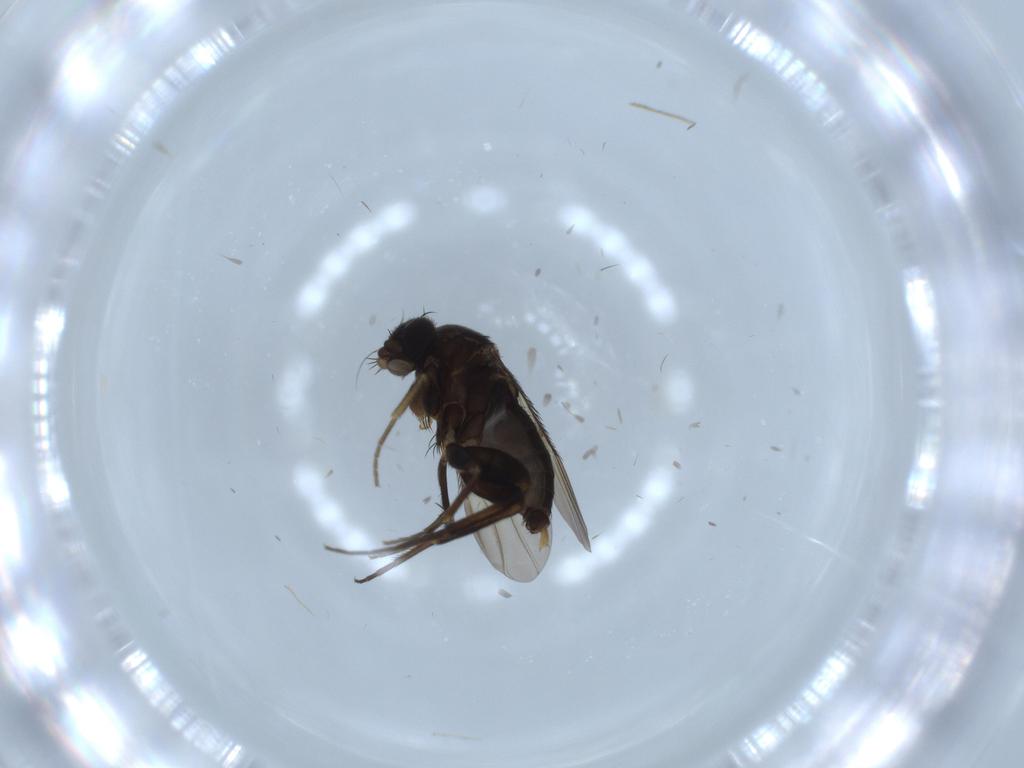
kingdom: Animalia
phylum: Arthropoda
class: Insecta
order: Diptera
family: Phoridae
